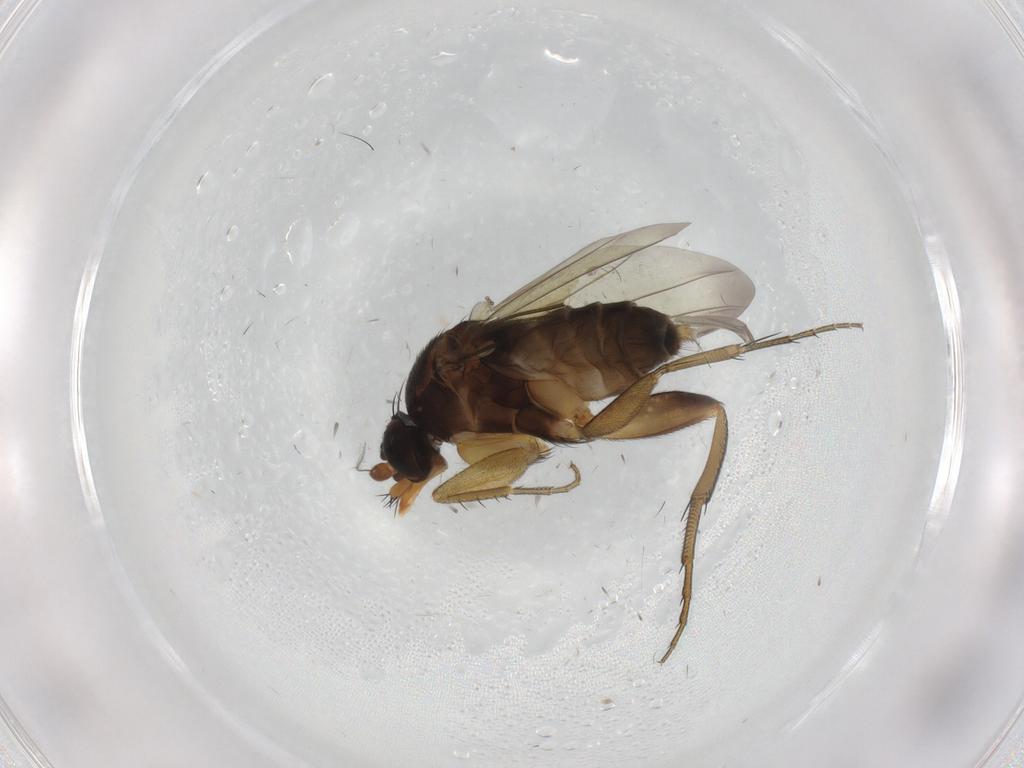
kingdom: Animalia
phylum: Arthropoda
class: Insecta
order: Diptera
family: Phoridae
